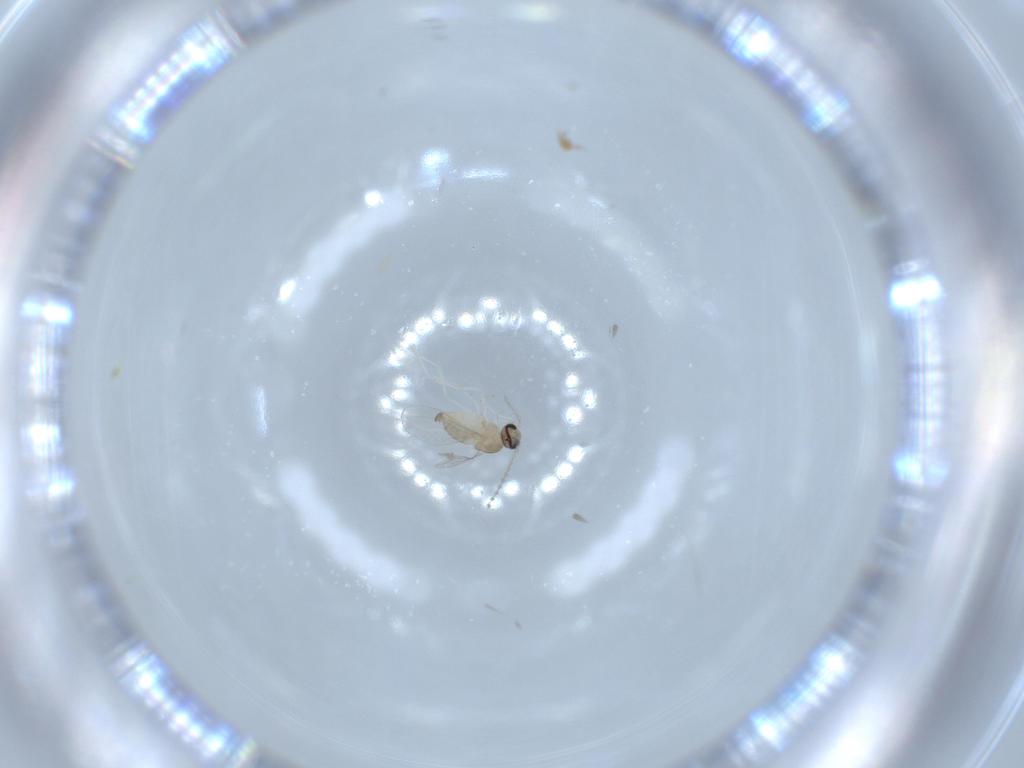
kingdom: Animalia
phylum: Arthropoda
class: Insecta
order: Diptera
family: Cecidomyiidae
